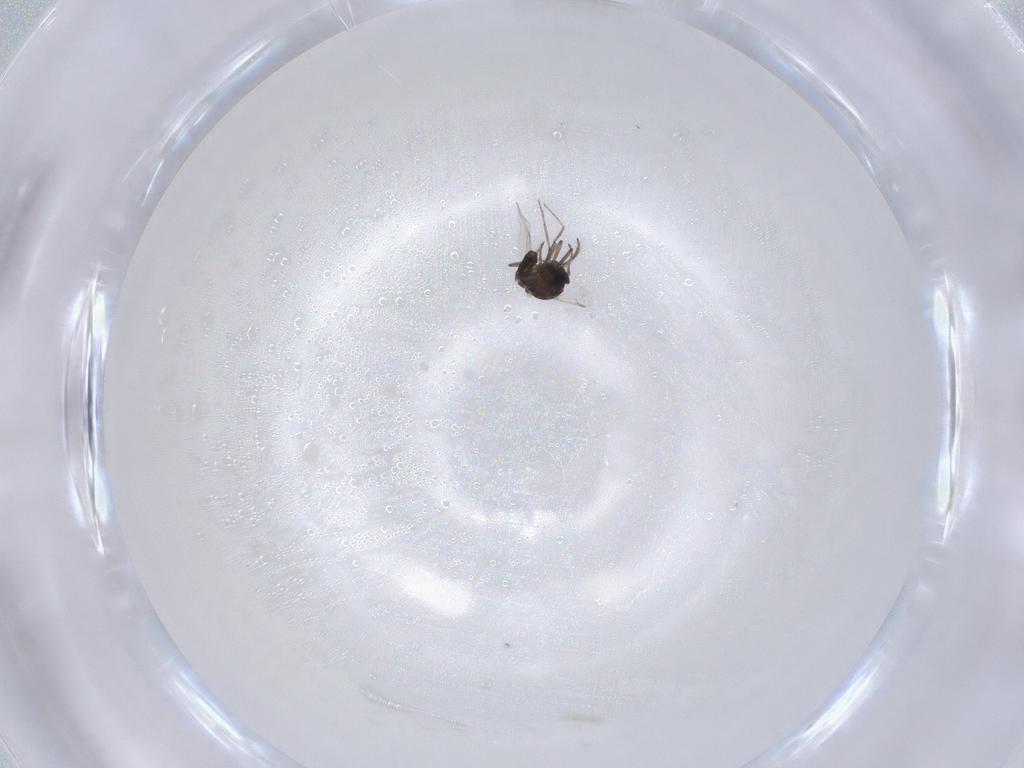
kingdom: Animalia
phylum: Arthropoda
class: Insecta
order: Diptera
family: Ceratopogonidae
